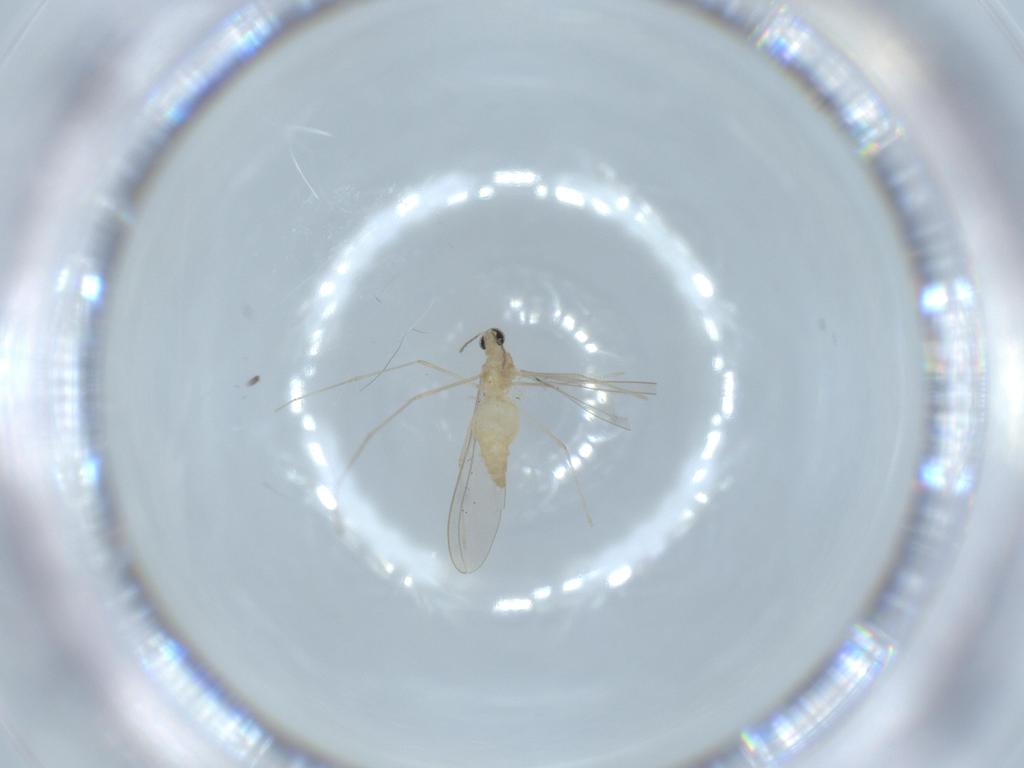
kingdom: Animalia
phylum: Arthropoda
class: Insecta
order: Diptera
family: Cecidomyiidae
